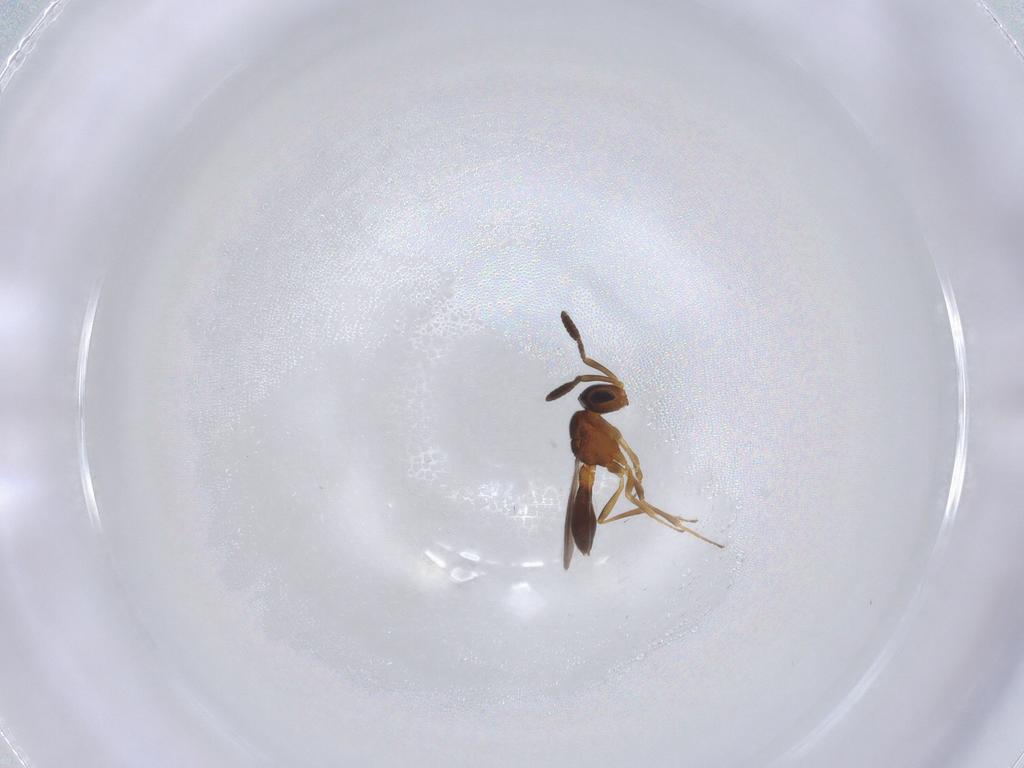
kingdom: Animalia
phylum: Arthropoda
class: Insecta
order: Hymenoptera
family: Scelionidae
